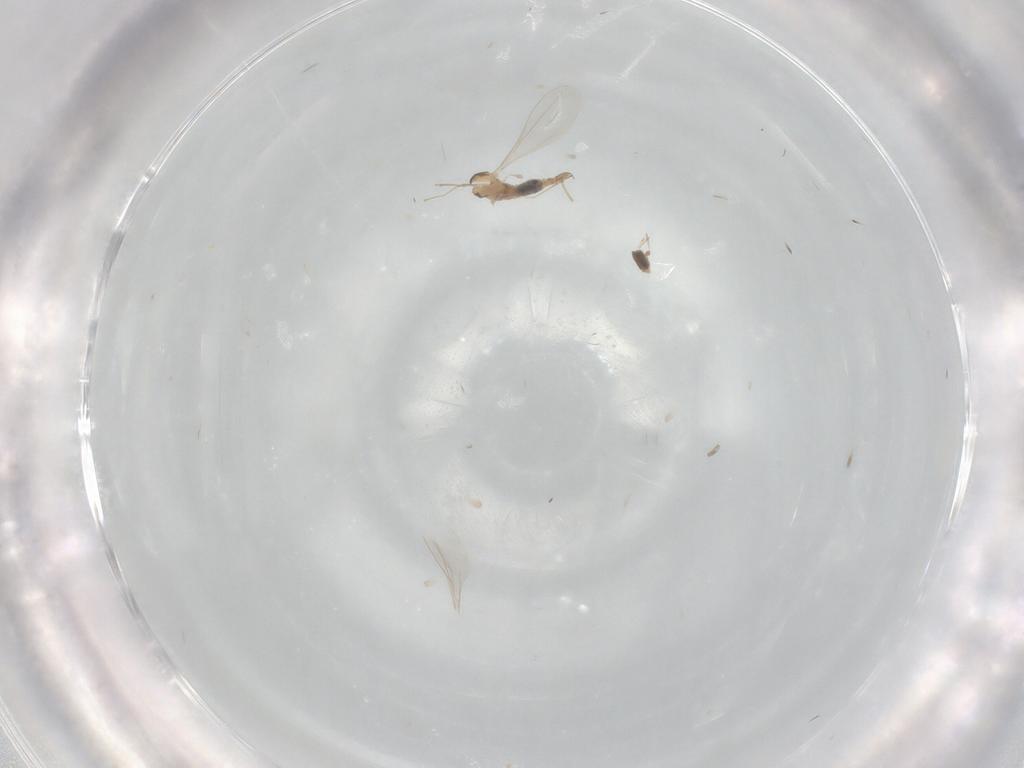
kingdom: Animalia
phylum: Arthropoda
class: Insecta
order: Diptera
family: Cecidomyiidae
